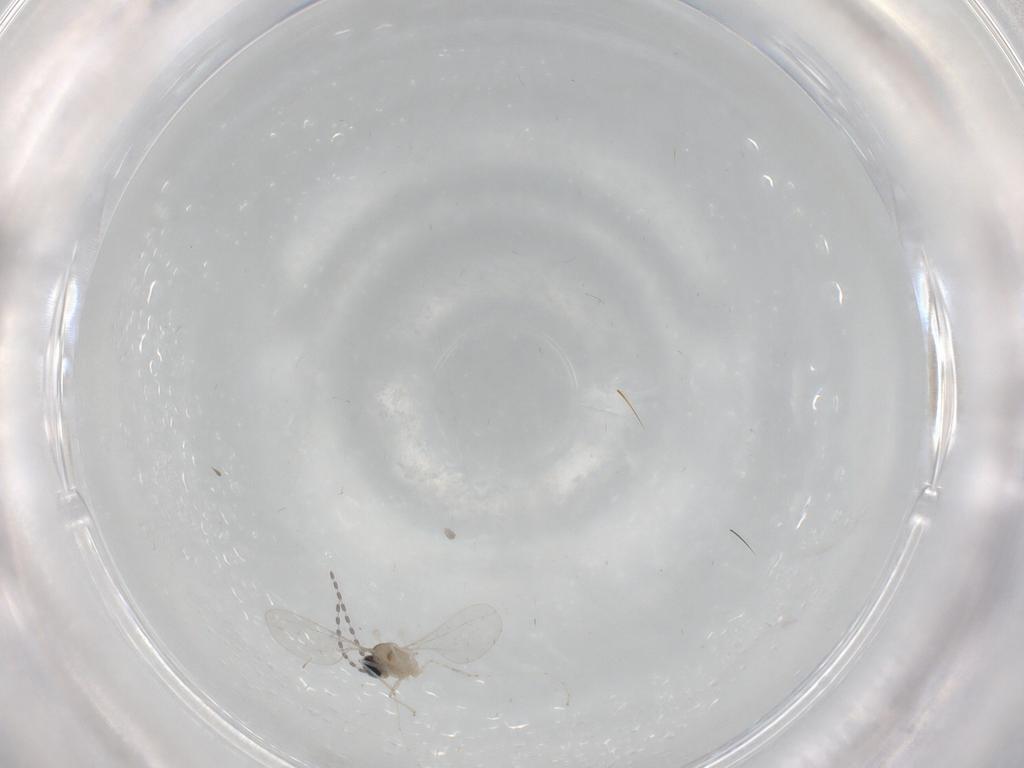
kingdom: Animalia
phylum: Arthropoda
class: Insecta
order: Diptera
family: Cecidomyiidae
